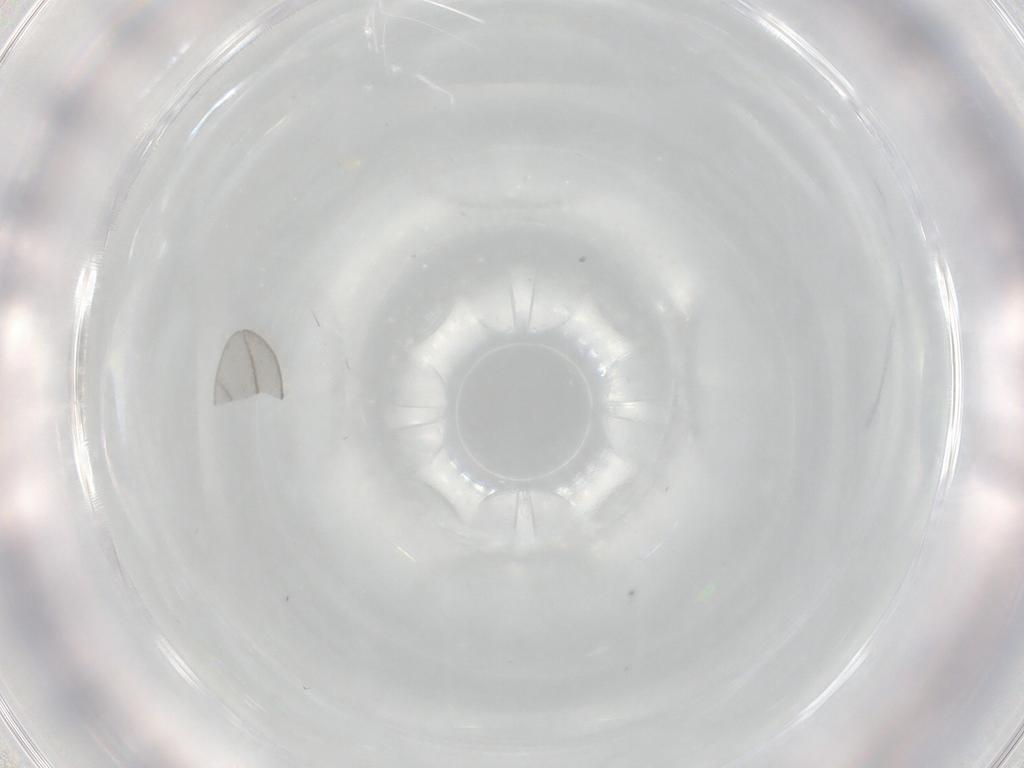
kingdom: Animalia
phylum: Arthropoda
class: Insecta
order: Diptera
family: Cecidomyiidae
